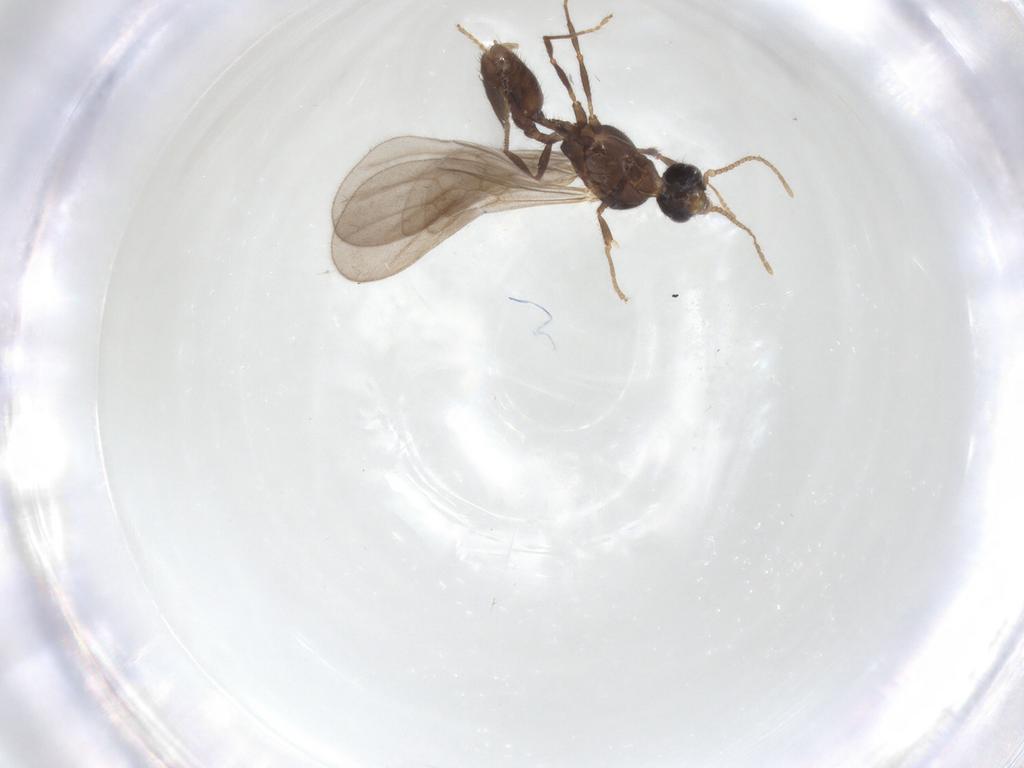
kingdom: Animalia
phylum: Arthropoda
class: Insecta
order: Hymenoptera
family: Formicidae
